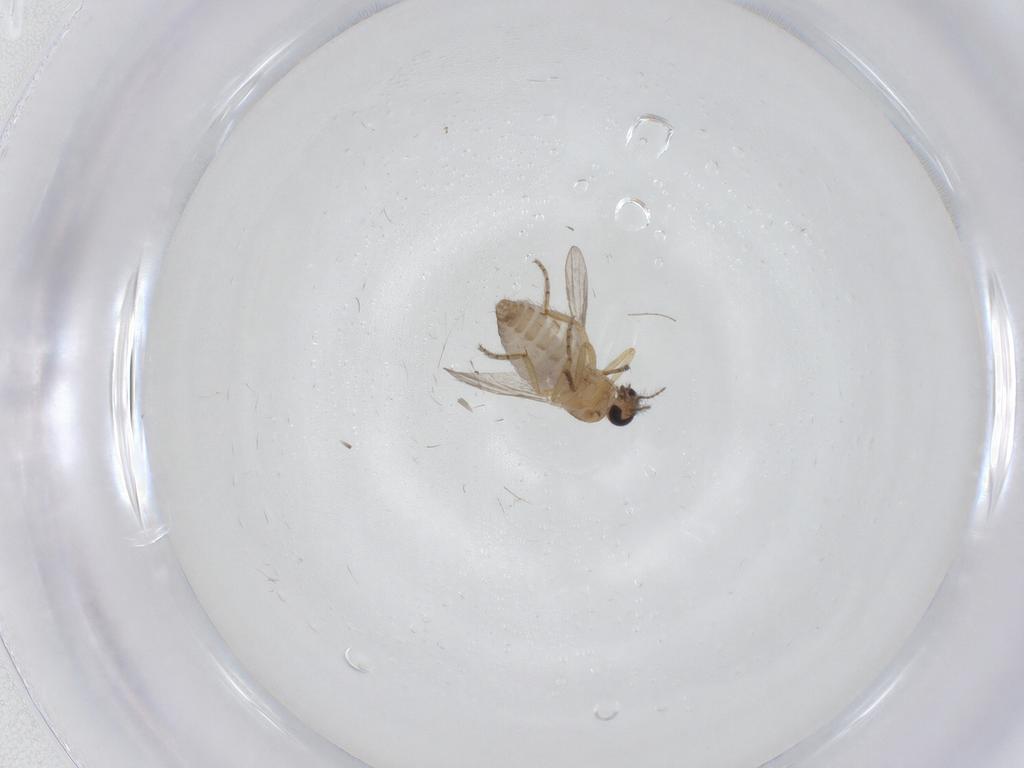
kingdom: Animalia
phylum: Arthropoda
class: Insecta
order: Diptera
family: Ceratopogonidae
